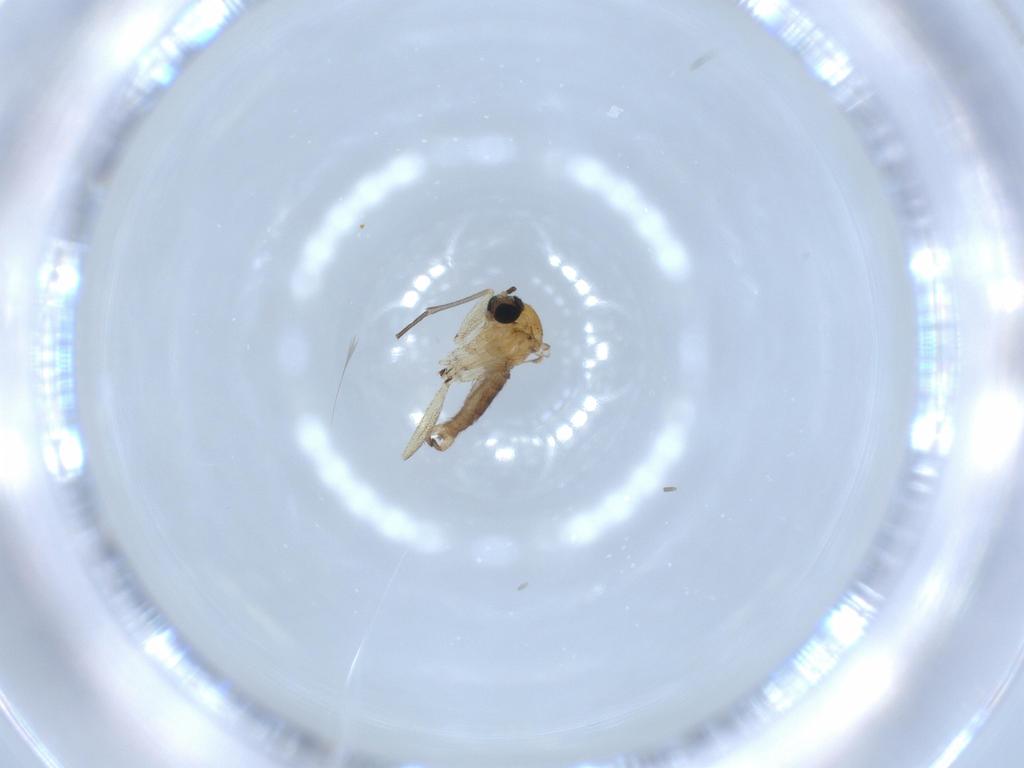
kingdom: Animalia
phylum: Arthropoda
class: Insecta
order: Diptera
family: Sciaridae
